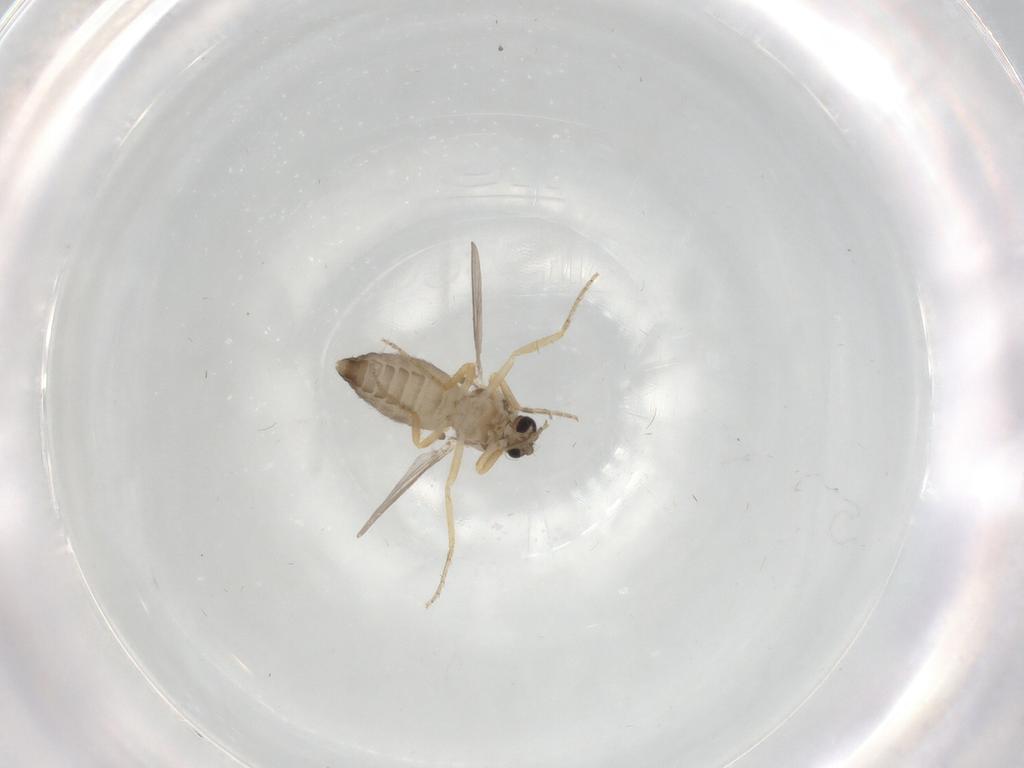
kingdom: Animalia
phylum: Arthropoda
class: Insecta
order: Diptera
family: Ceratopogonidae
